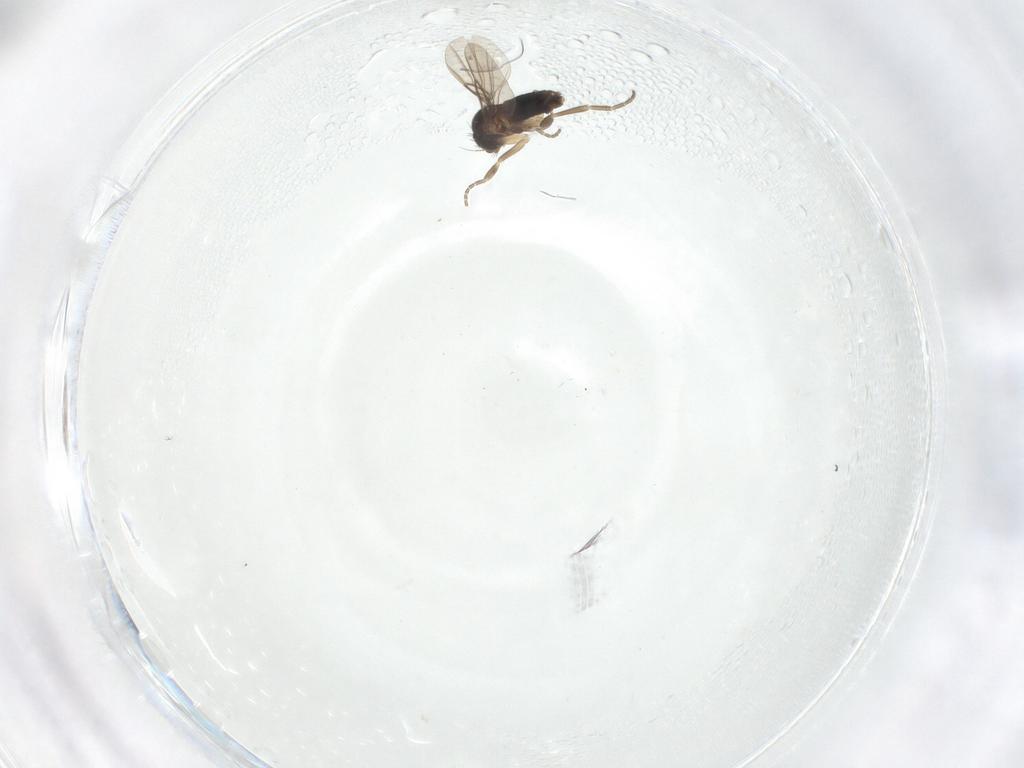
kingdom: Animalia
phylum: Arthropoda
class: Insecta
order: Diptera
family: Phoridae
